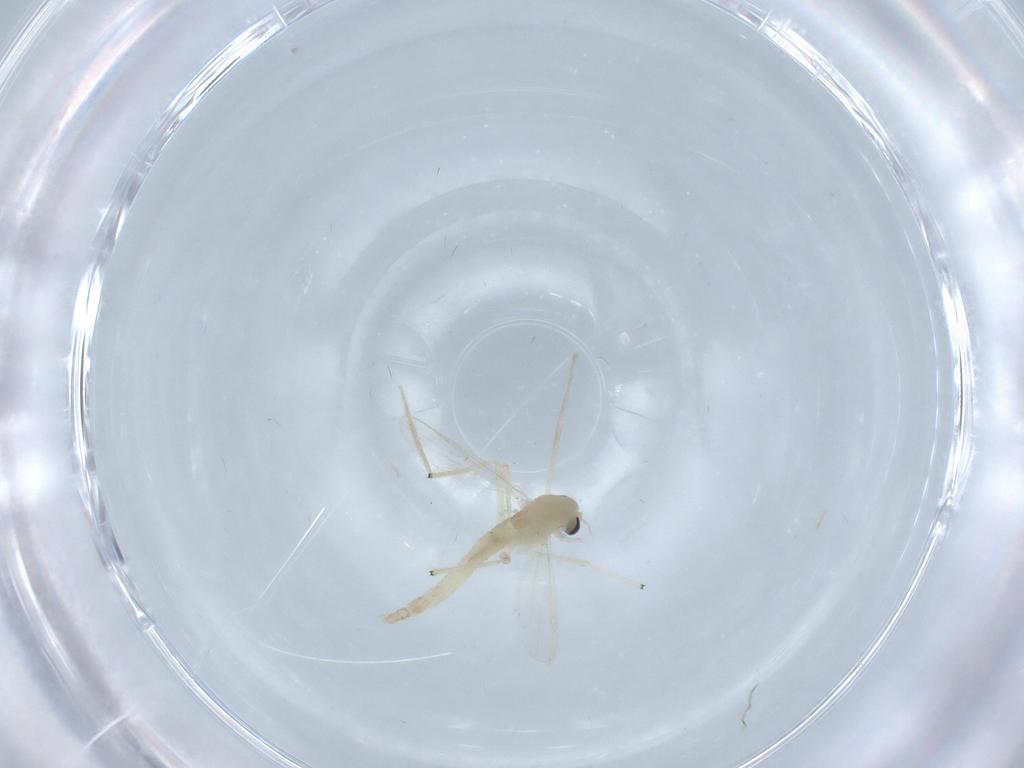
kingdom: Animalia
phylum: Arthropoda
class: Insecta
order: Diptera
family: Chironomidae
